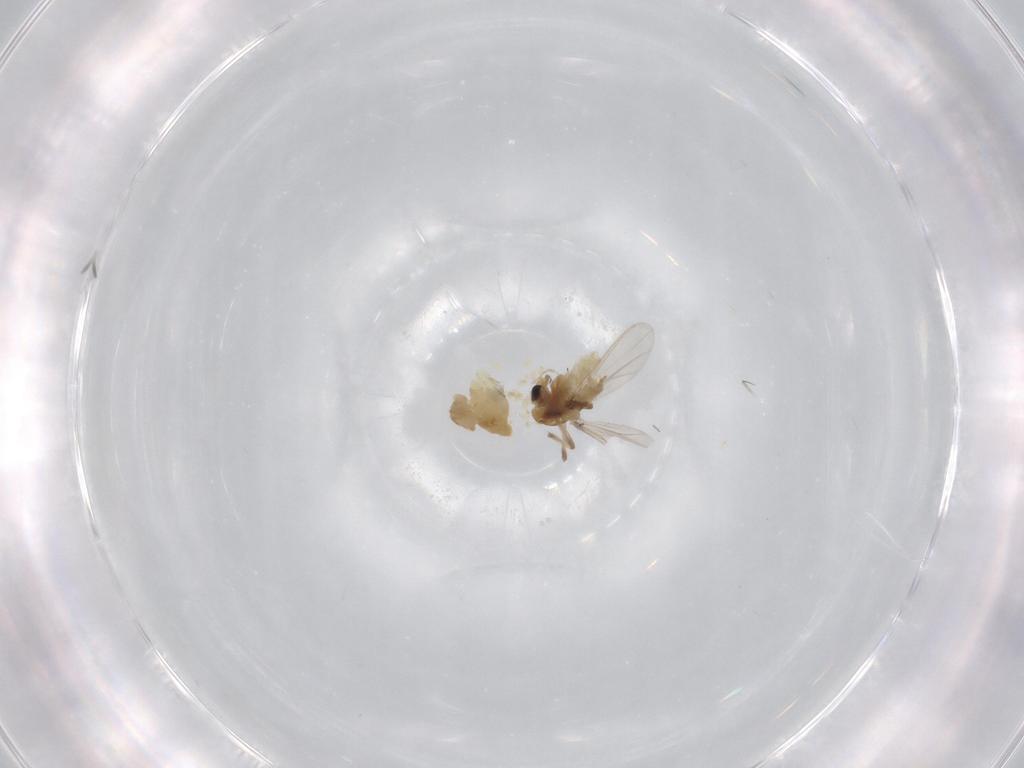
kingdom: Animalia
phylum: Arthropoda
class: Insecta
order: Diptera
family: Chironomidae
